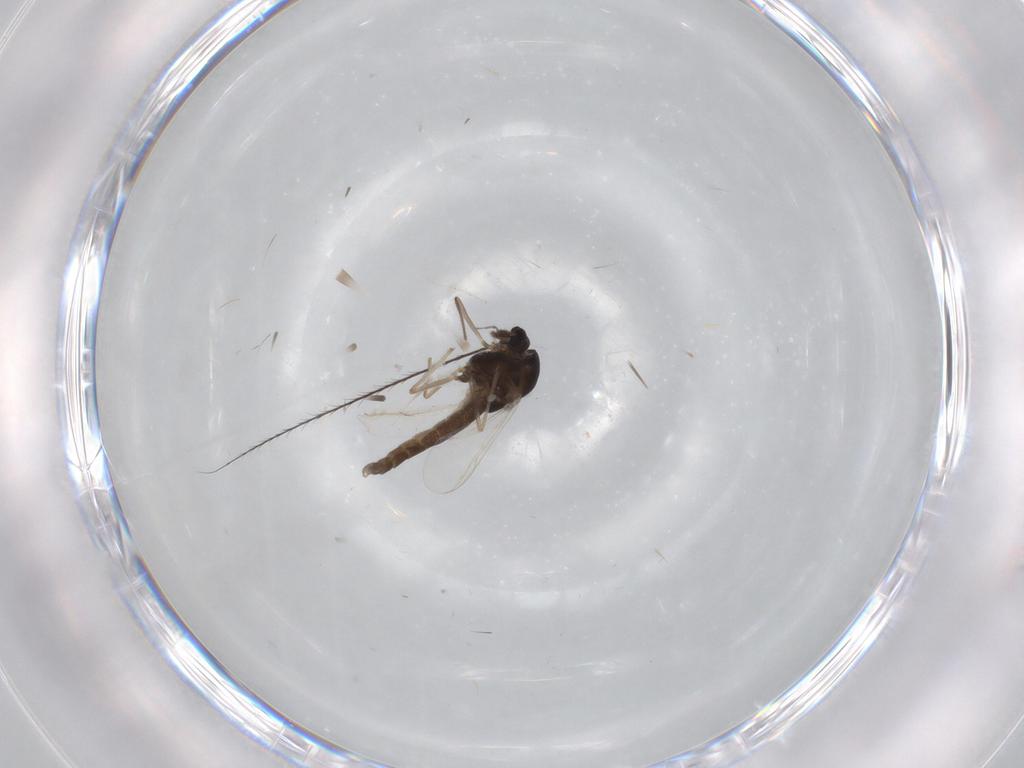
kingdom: Animalia
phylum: Arthropoda
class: Insecta
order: Diptera
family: Chironomidae
